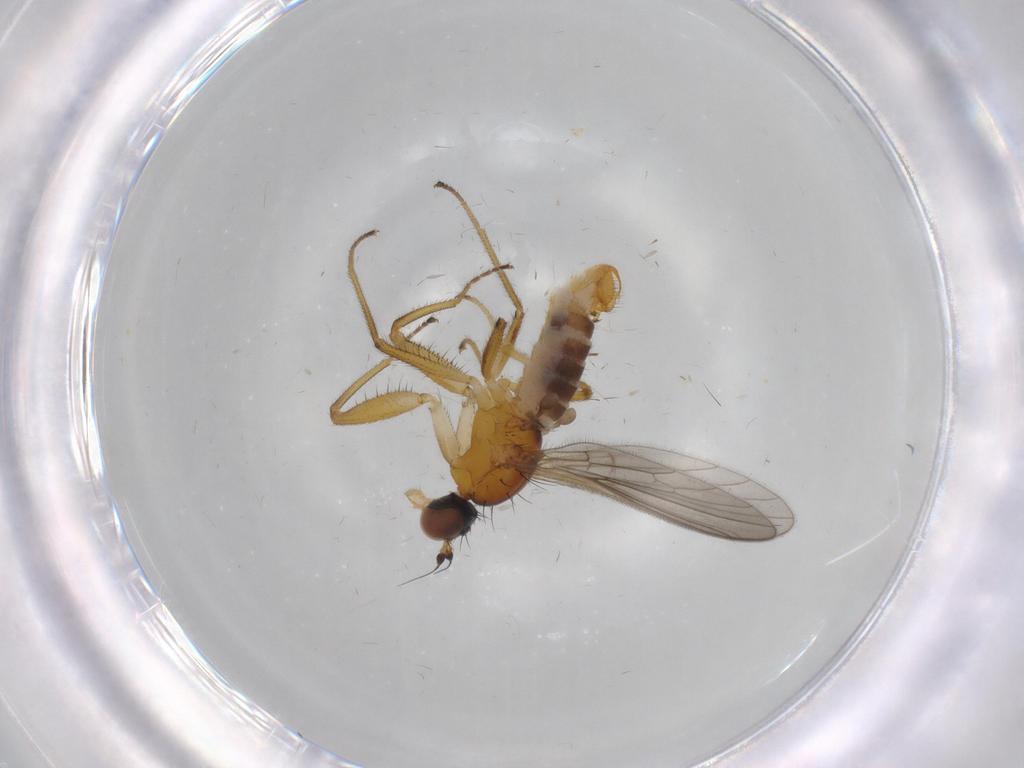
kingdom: Animalia
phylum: Arthropoda
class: Insecta
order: Diptera
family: Empididae
